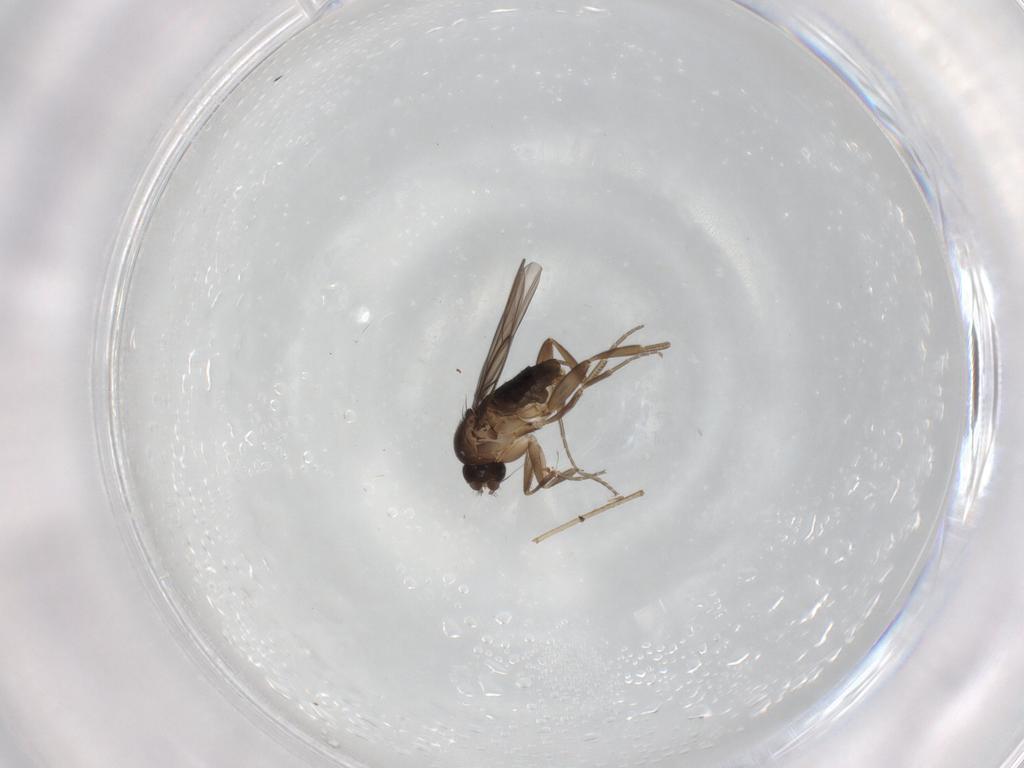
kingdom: Animalia
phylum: Arthropoda
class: Insecta
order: Diptera
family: Phoridae
